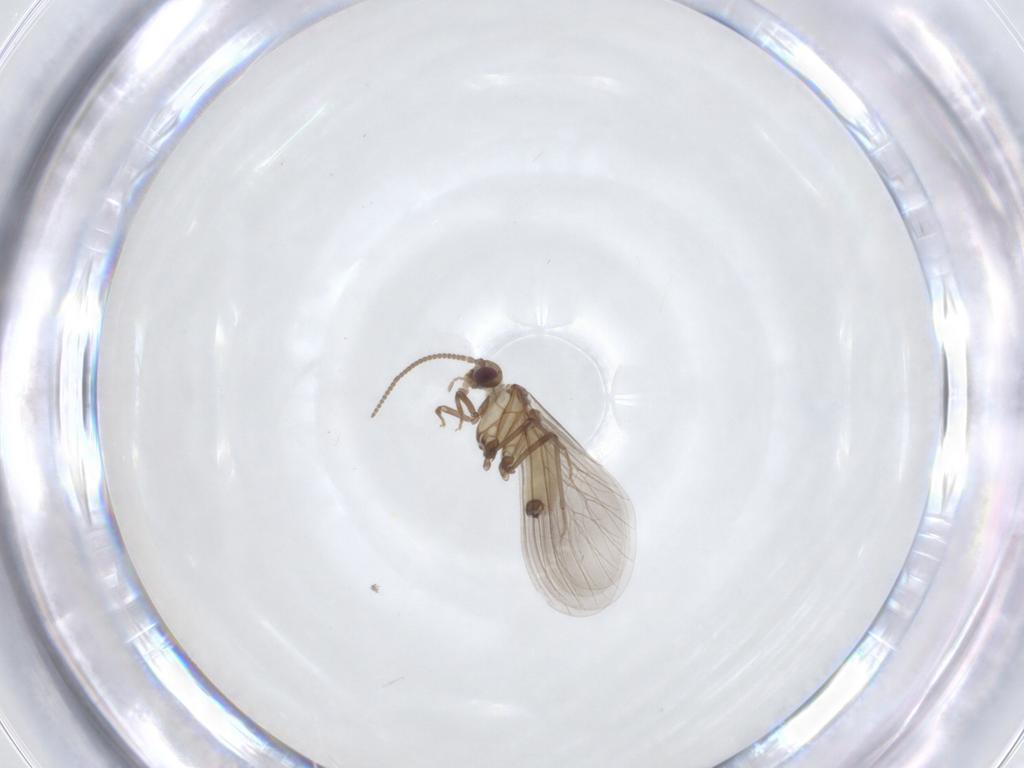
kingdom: Animalia
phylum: Arthropoda
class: Insecta
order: Neuroptera
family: Coniopterygidae
